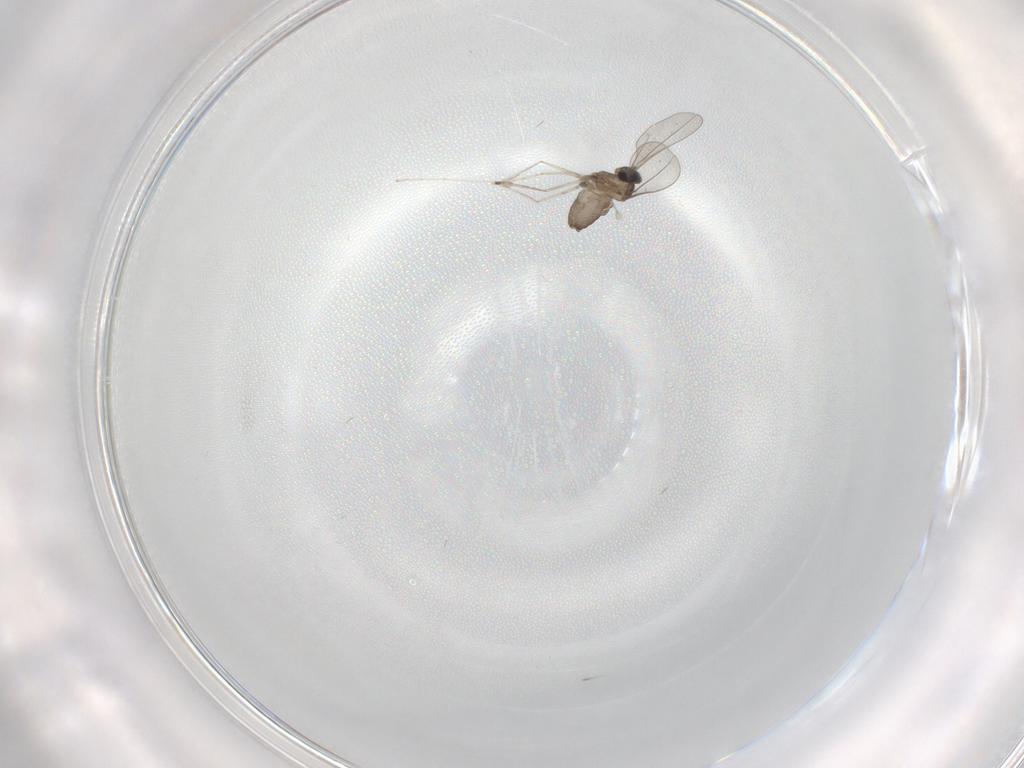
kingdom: Animalia
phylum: Arthropoda
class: Insecta
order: Diptera
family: Cecidomyiidae
